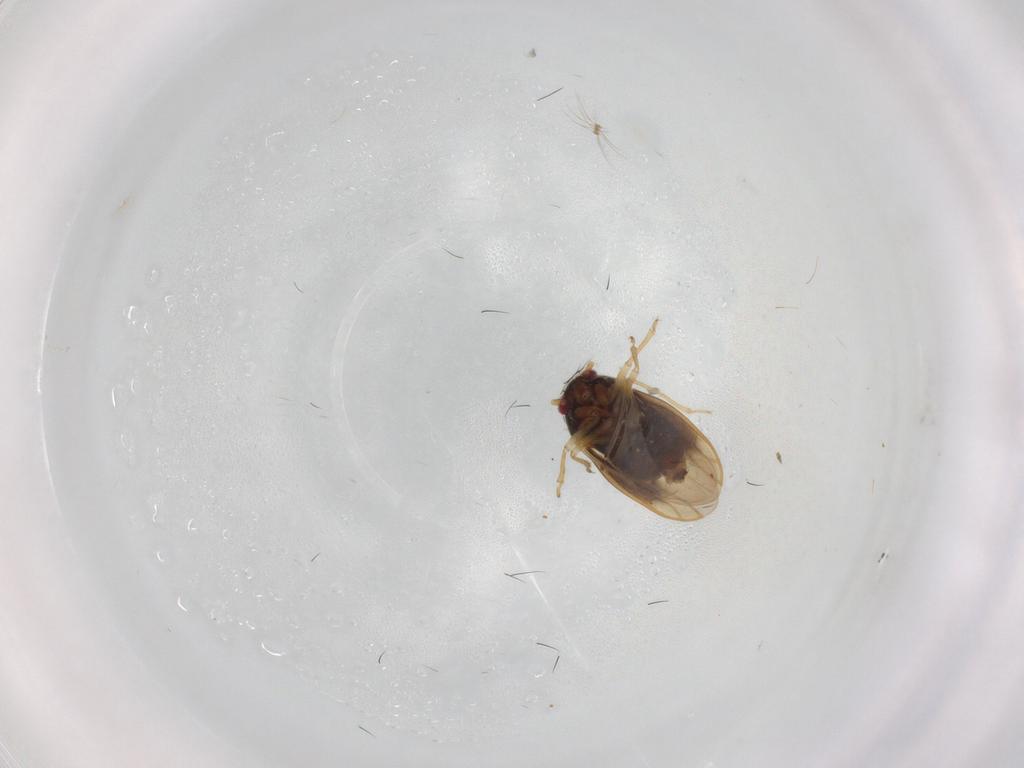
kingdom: Animalia
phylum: Arthropoda
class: Insecta
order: Hemiptera
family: Schizopteridae
